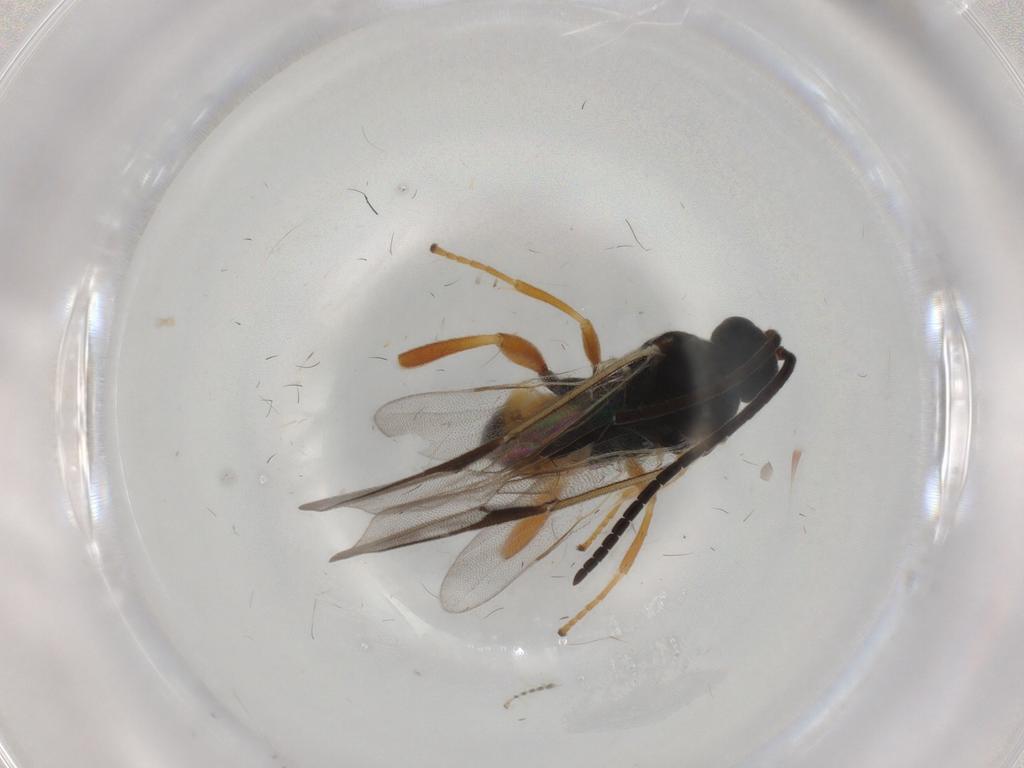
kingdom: Animalia
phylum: Arthropoda
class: Insecta
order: Hymenoptera
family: Braconidae
